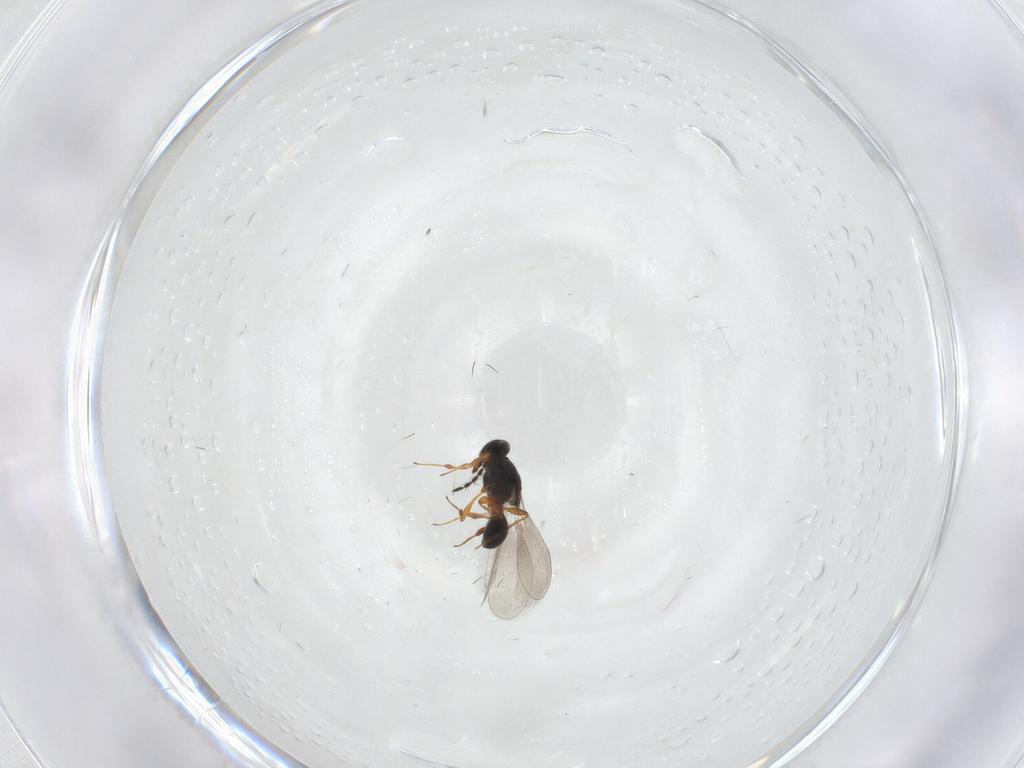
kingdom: Animalia
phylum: Arthropoda
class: Insecta
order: Hymenoptera
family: Platygastridae
